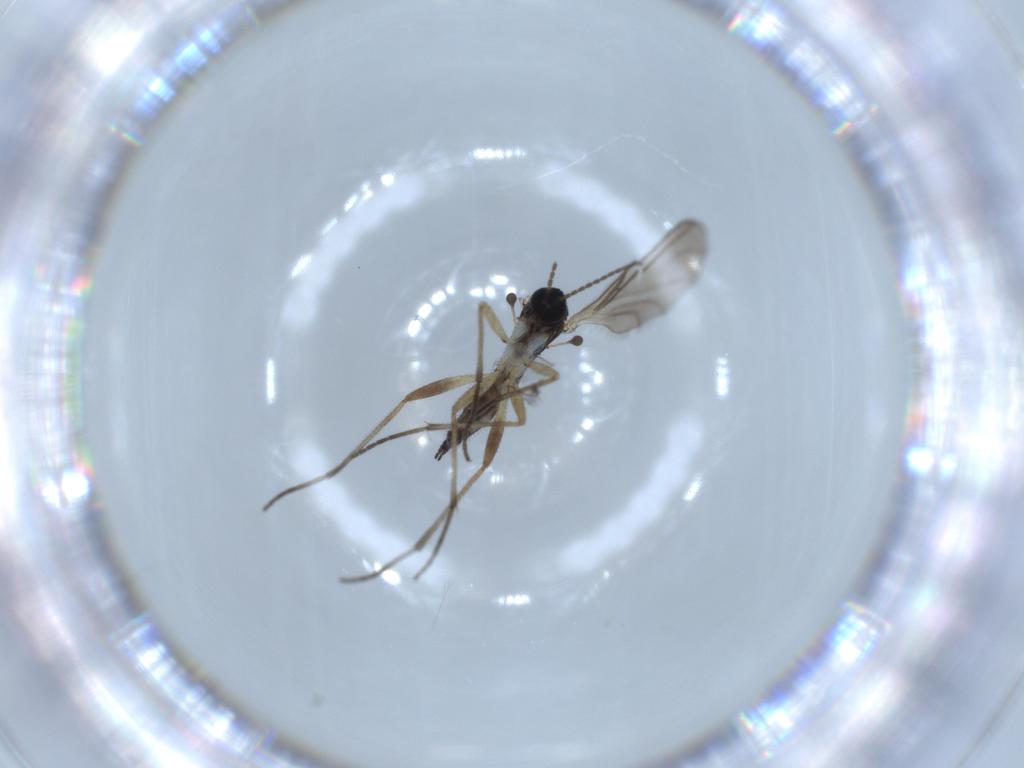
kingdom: Animalia
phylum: Arthropoda
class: Insecta
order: Diptera
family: Sciaridae
